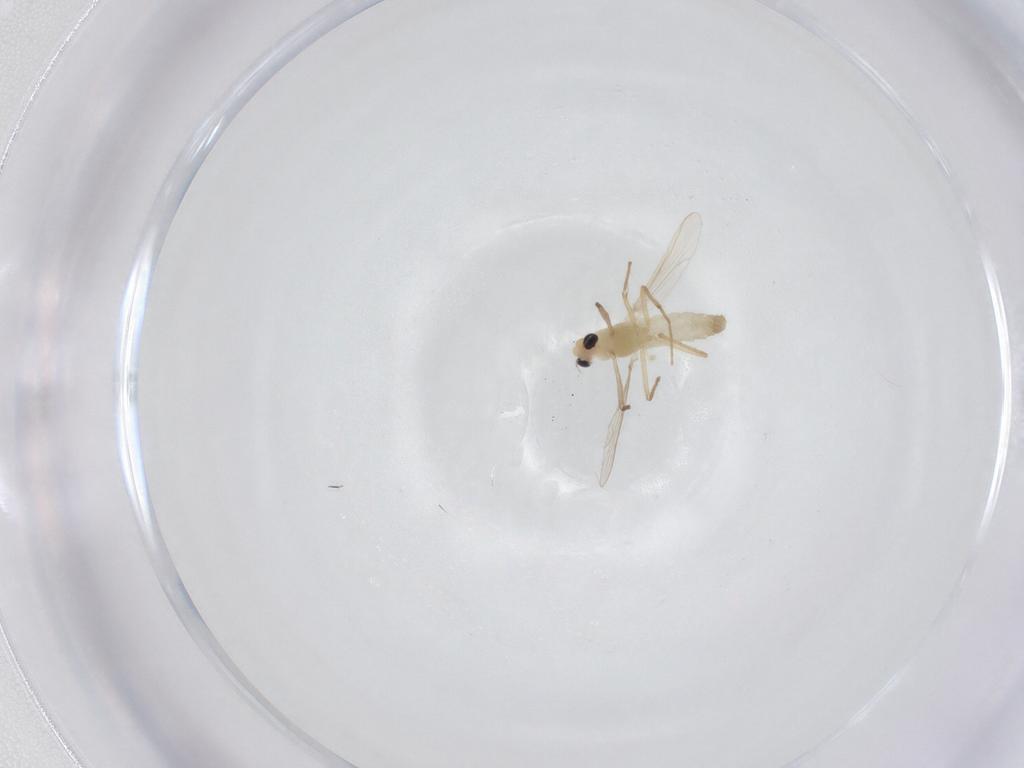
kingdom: Animalia
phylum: Arthropoda
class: Insecta
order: Diptera
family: Chironomidae
